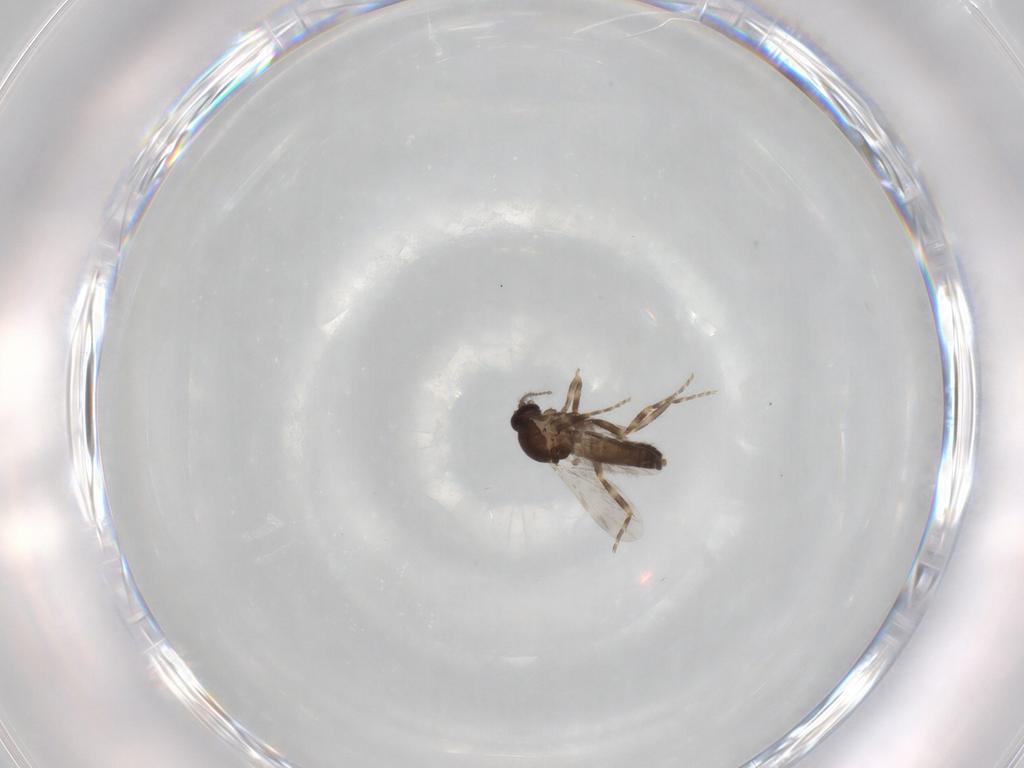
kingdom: Animalia
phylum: Arthropoda
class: Insecta
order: Diptera
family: Ceratopogonidae
